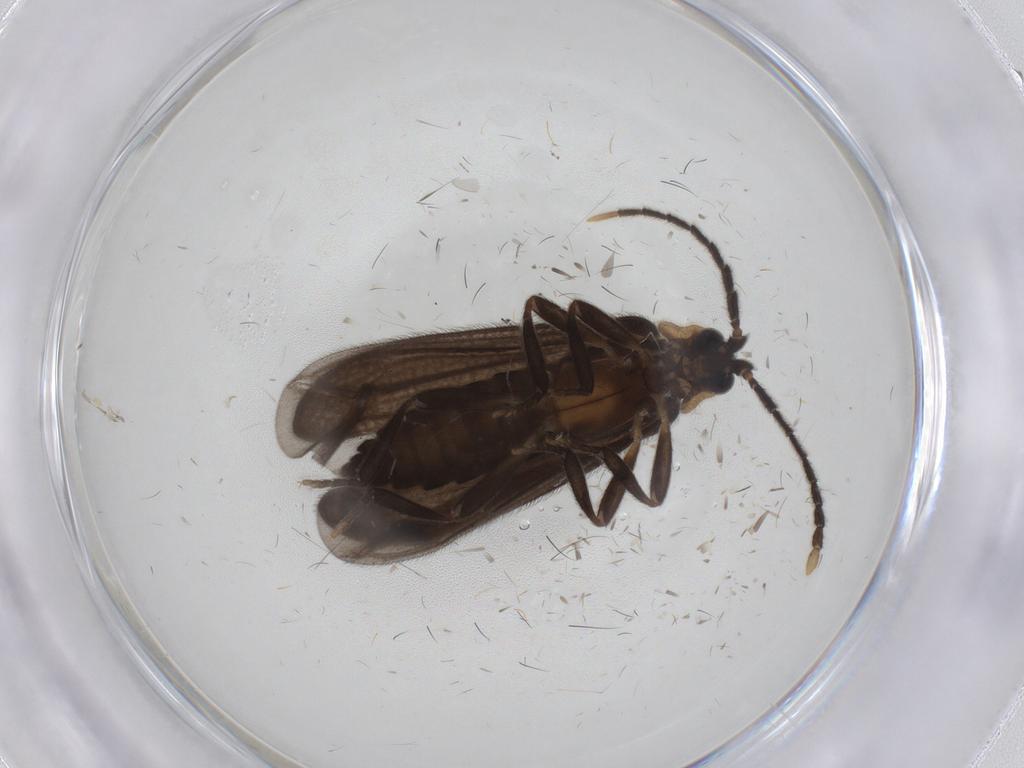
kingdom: Animalia
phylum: Arthropoda
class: Insecta
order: Coleoptera
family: Lycidae
